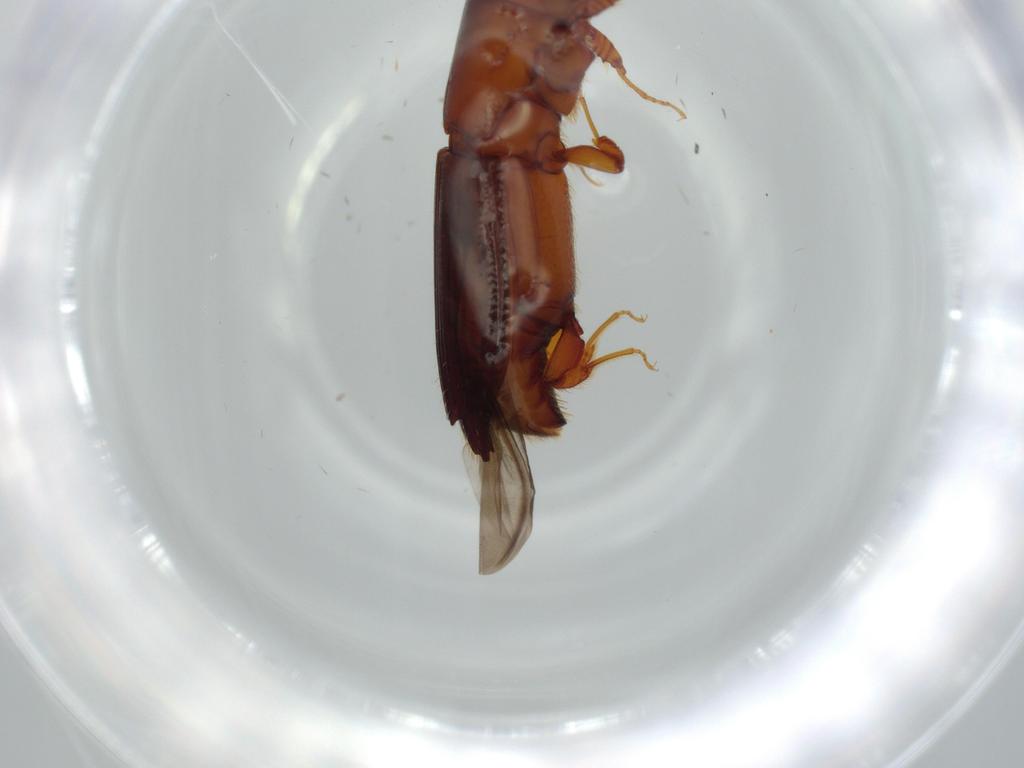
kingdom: Animalia
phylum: Arthropoda
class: Insecta
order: Coleoptera
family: Curculionidae
